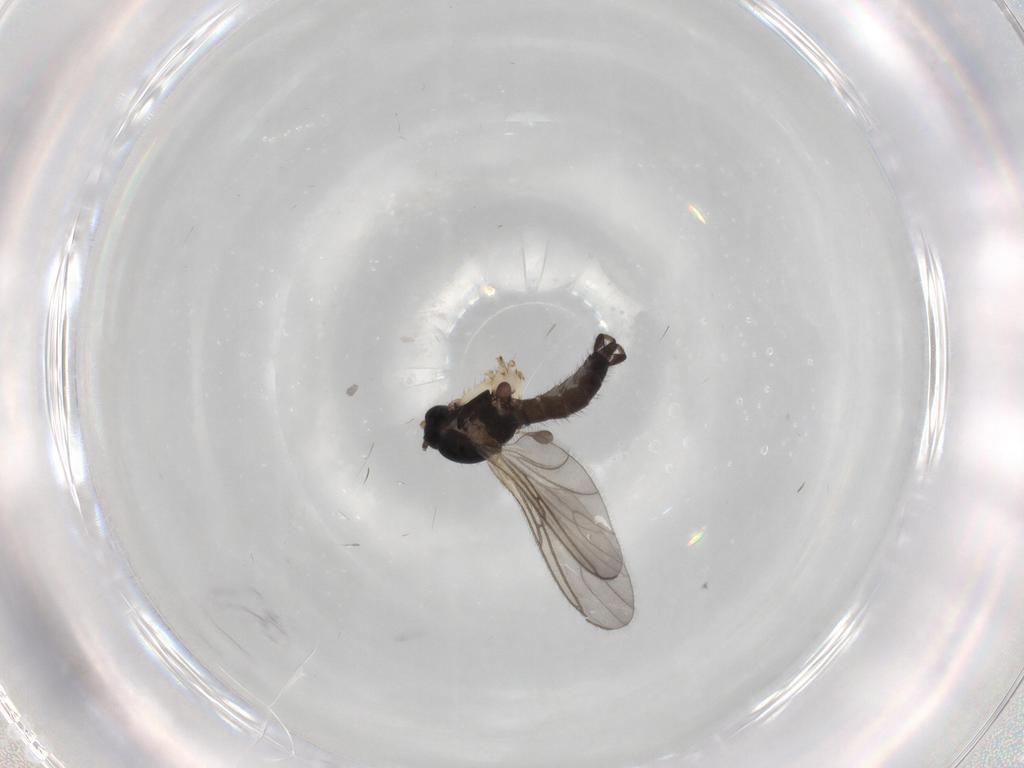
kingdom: Animalia
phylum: Arthropoda
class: Insecta
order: Diptera
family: Sciaridae
